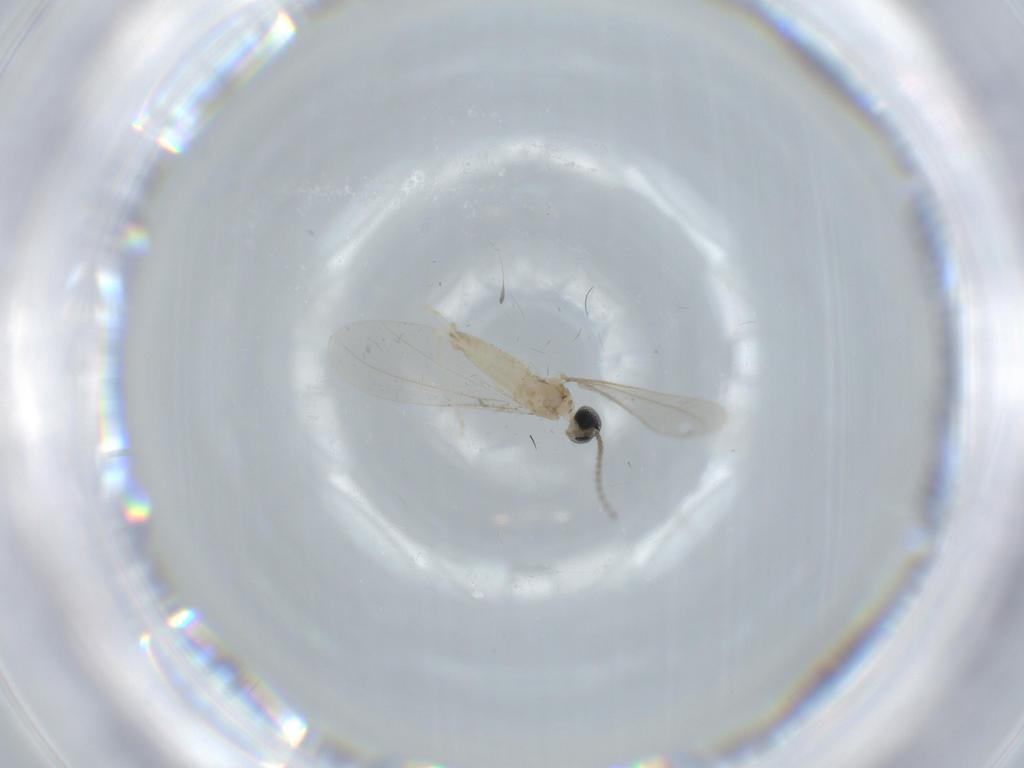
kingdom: Animalia
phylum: Arthropoda
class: Insecta
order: Diptera
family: Cecidomyiidae
